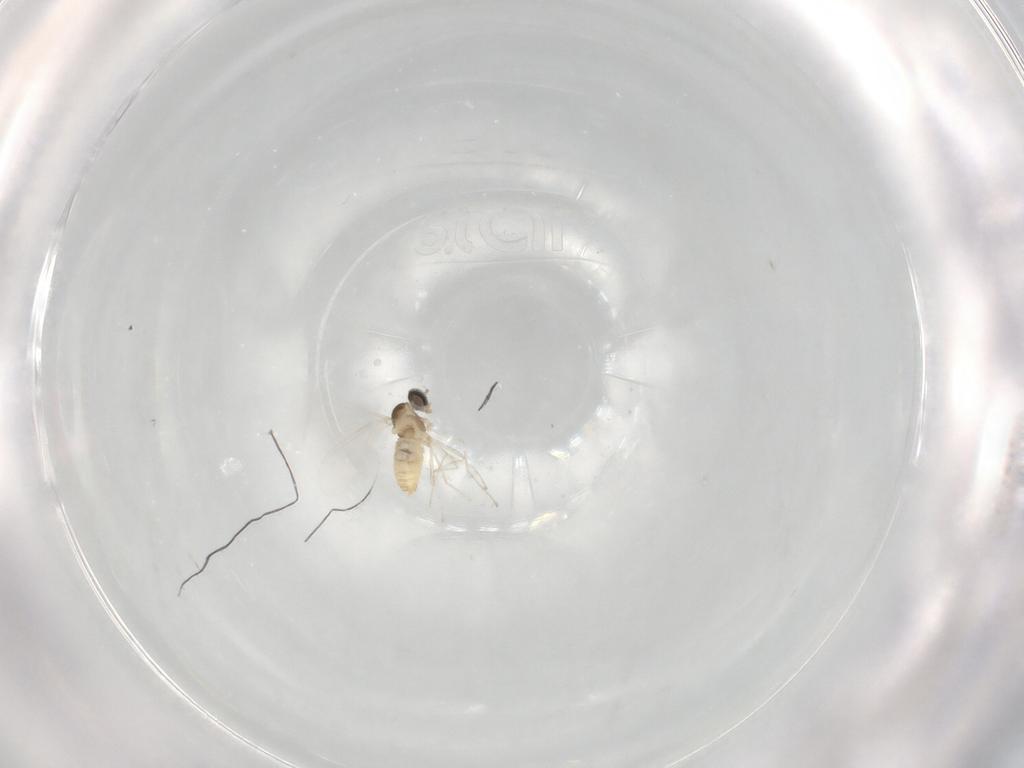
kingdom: Animalia
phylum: Arthropoda
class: Insecta
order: Diptera
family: Cecidomyiidae
